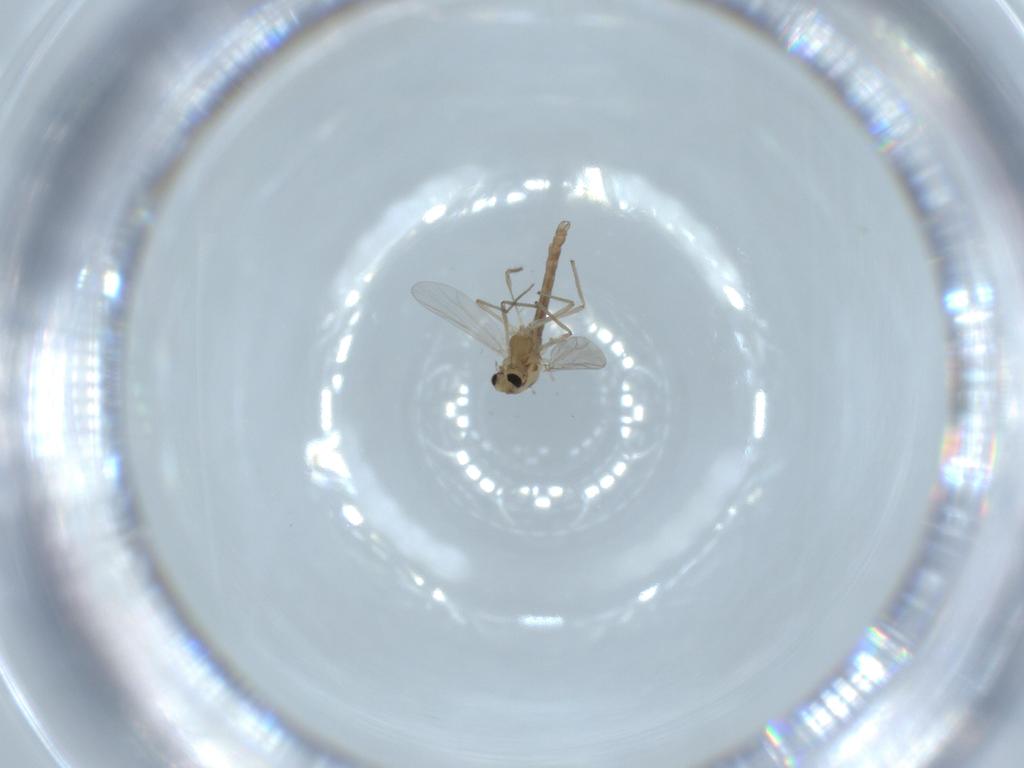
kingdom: Animalia
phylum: Arthropoda
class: Insecta
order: Diptera
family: Chironomidae
